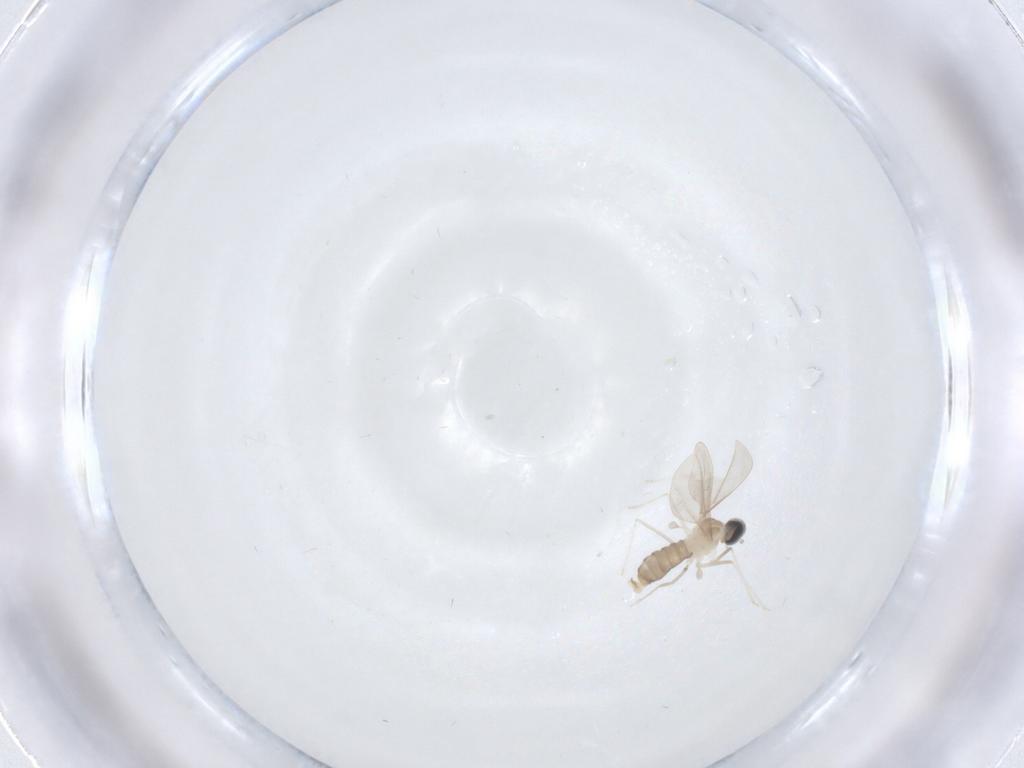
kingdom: Animalia
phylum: Arthropoda
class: Insecta
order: Diptera
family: Cecidomyiidae
